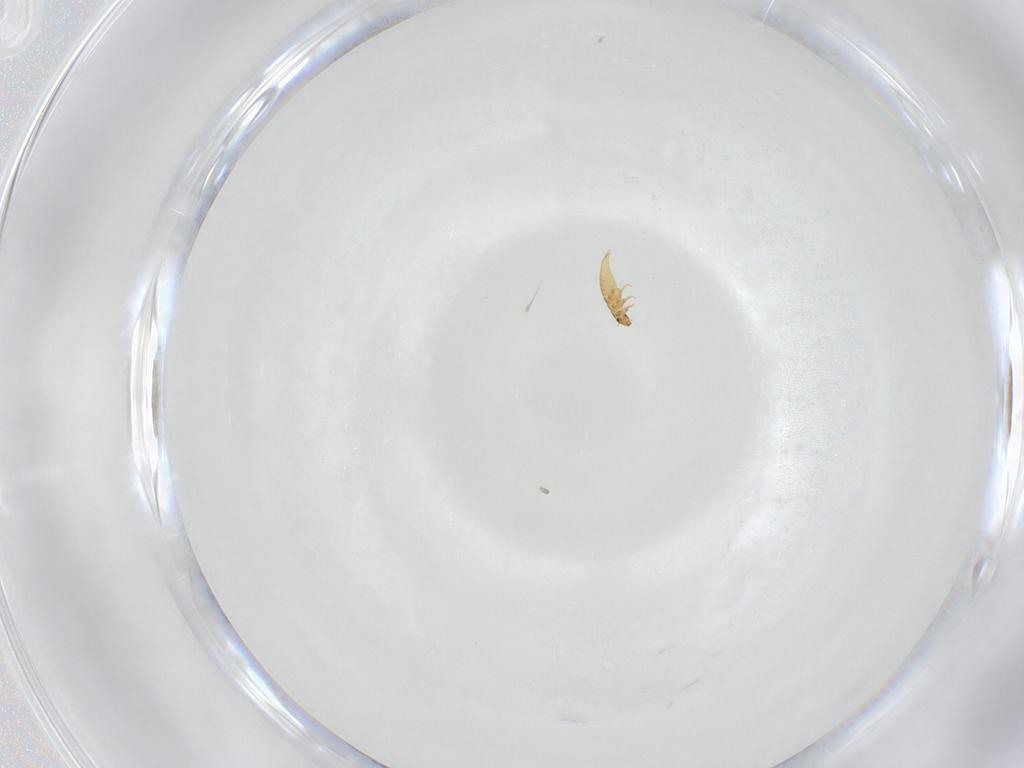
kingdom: Animalia
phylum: Arthropoda
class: Insecta
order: Coleoptera
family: Ripiphoridae
